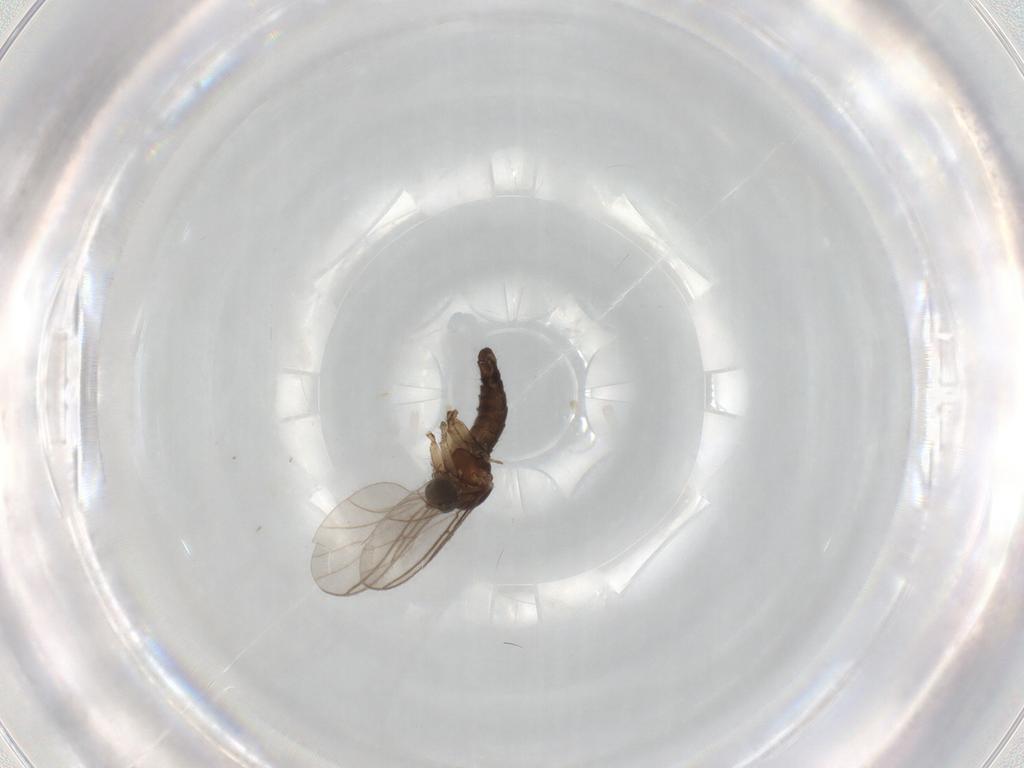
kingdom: Animalia
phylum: Arthropoda
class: Insecta
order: Diptera
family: Sciaridae
